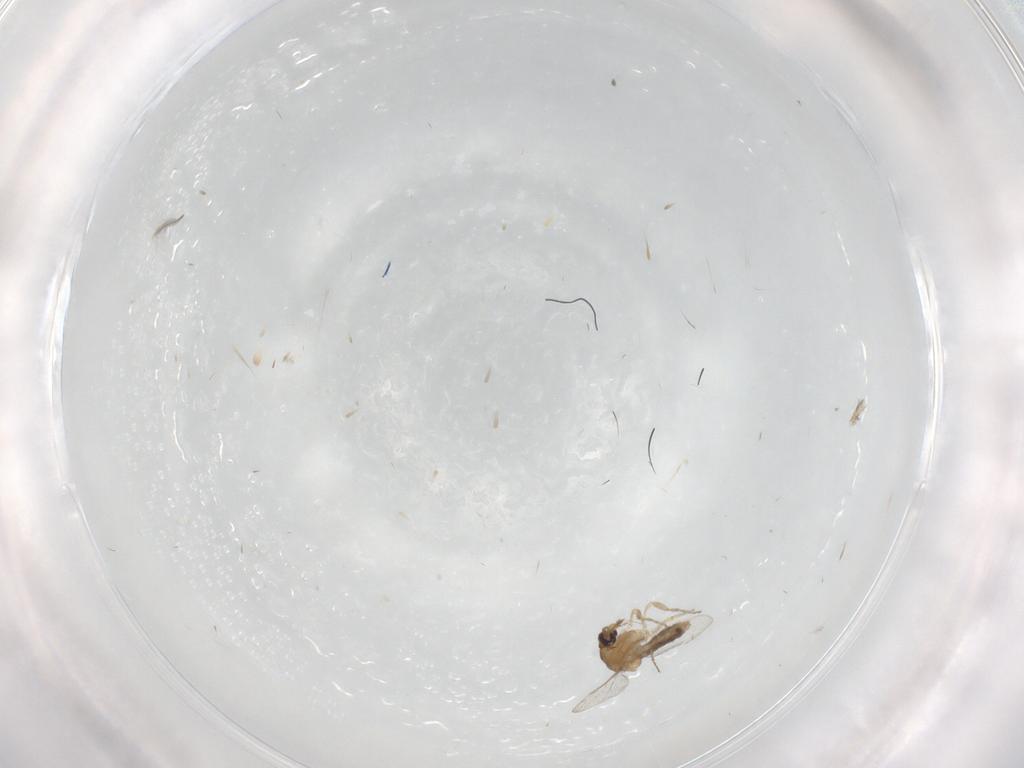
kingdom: Animalia
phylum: Arthropoda
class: Insecta
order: Diptera
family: Ceratopogonidae
